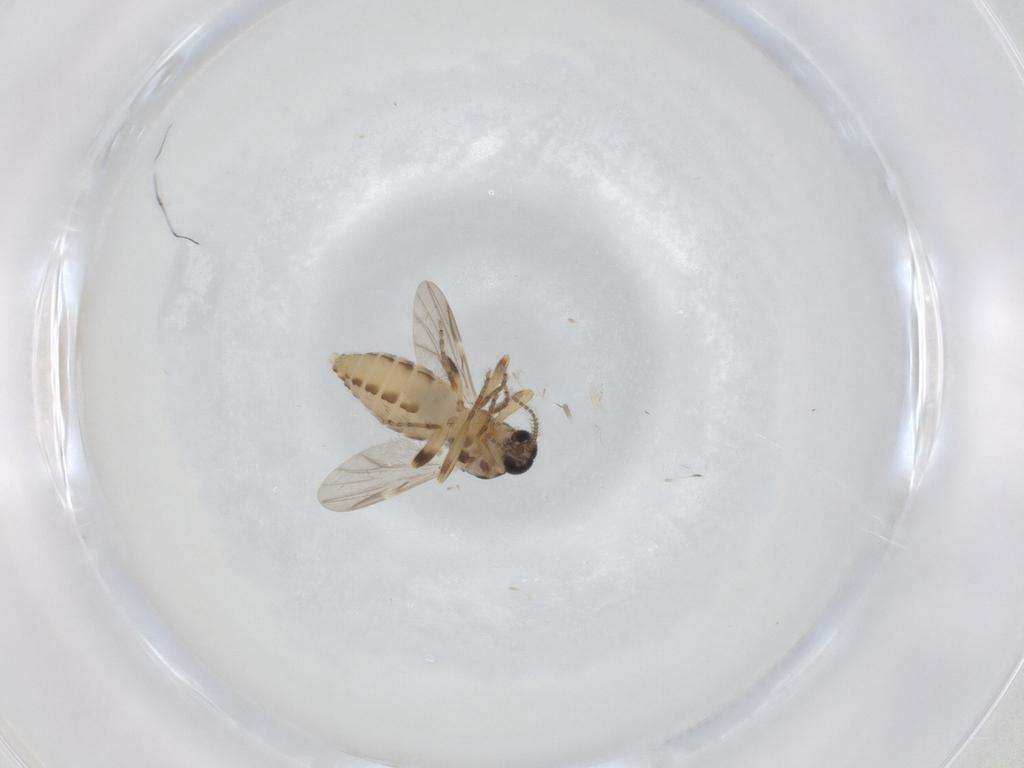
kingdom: Animalia
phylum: Arthropoda
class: Insecta
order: Diptera
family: Ceratopogonidae
